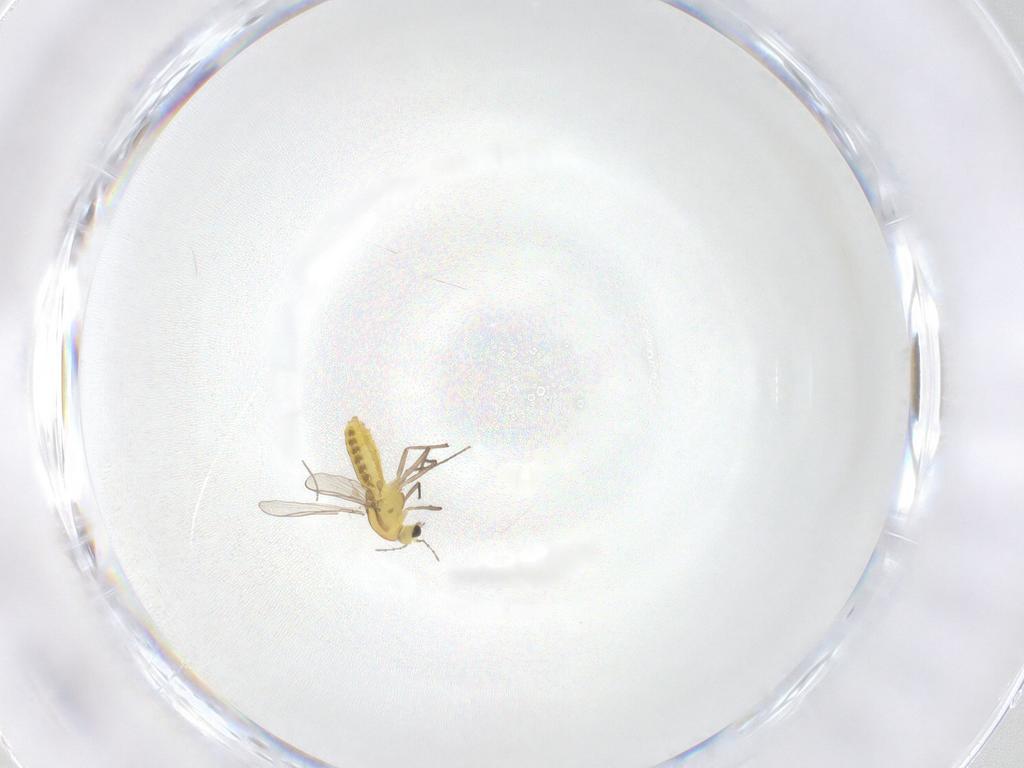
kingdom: Animalia
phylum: Arthropoda
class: Insecta
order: Diptera
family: Chironomidae
